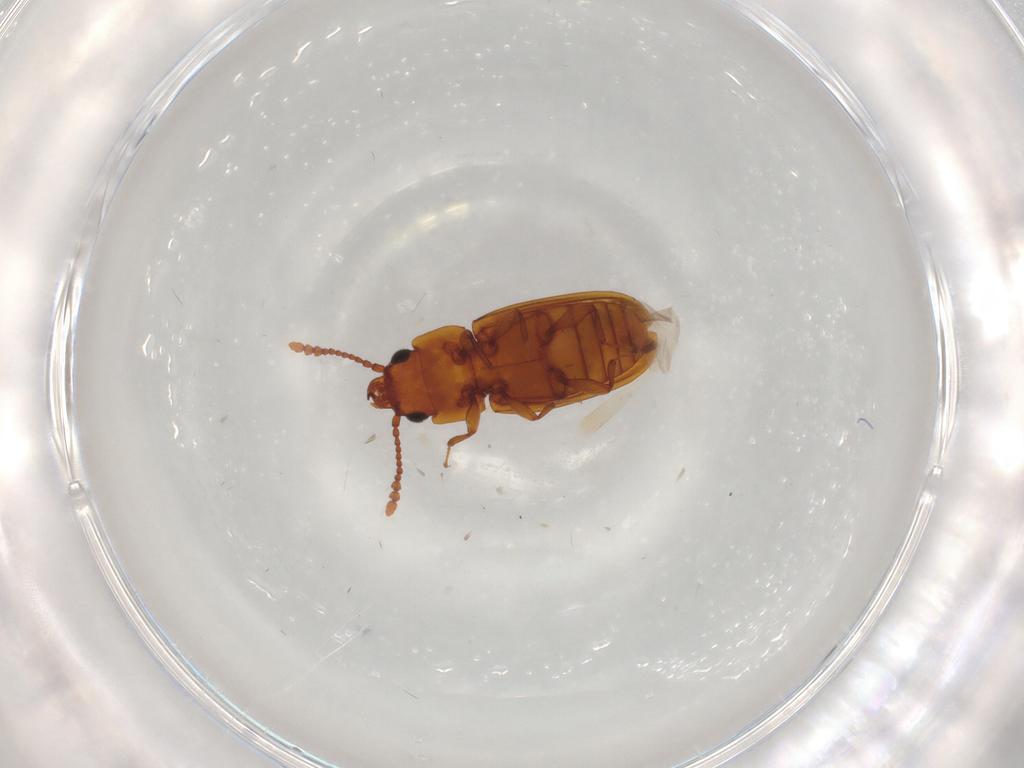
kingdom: Animalia
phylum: Arthropoda
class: Insecta
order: Coleoptera
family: Laemophloeidae
